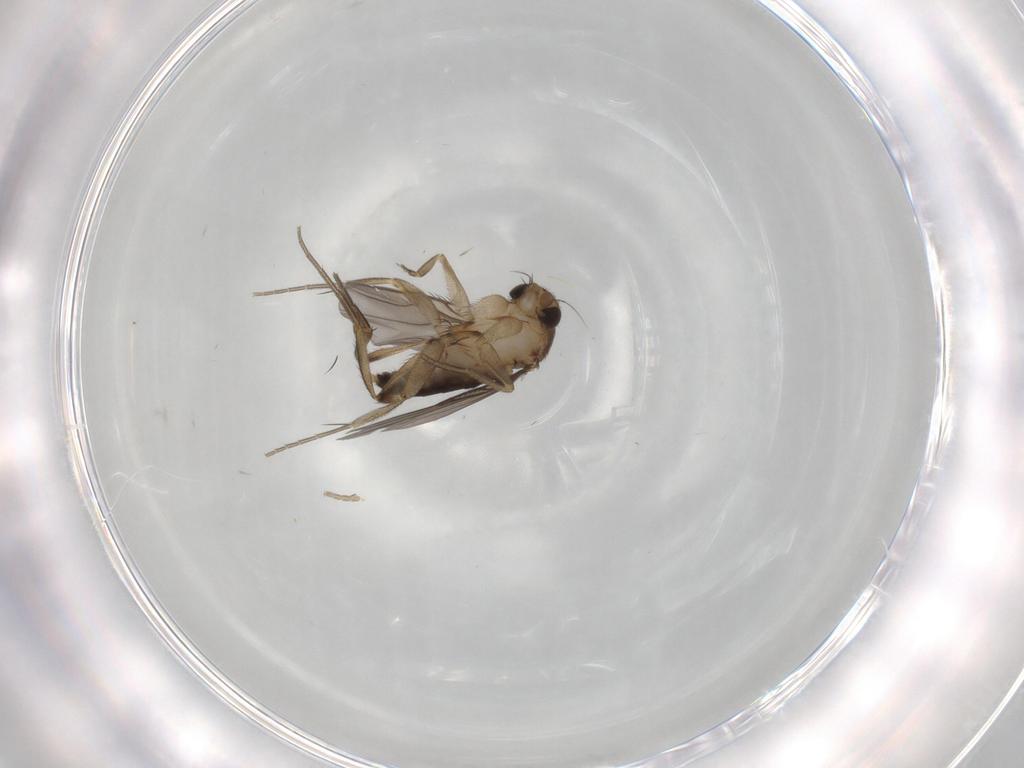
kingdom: Animalia
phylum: Arthropoda
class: Insecta
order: Diptera
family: Phoridae
